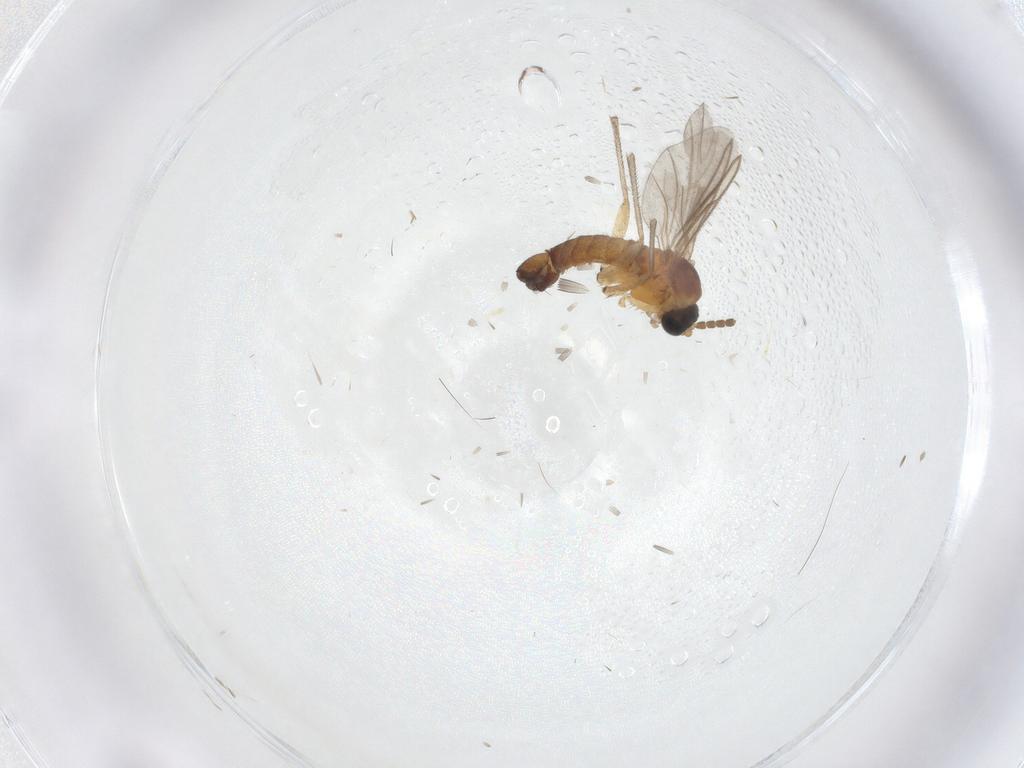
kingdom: Animalia
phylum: Arthropoda
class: Insecta
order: Diptera
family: Sciaridae
